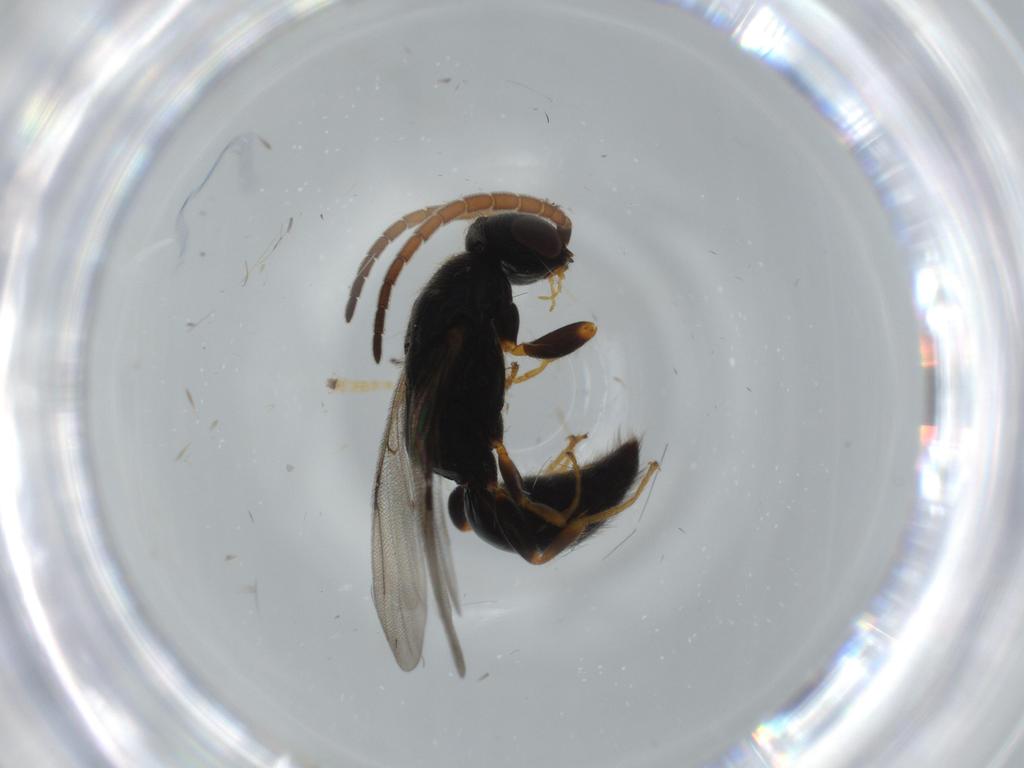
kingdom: Animalia
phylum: Arthropoda
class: Insecta
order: Hymenoptera
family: Bethylidae
